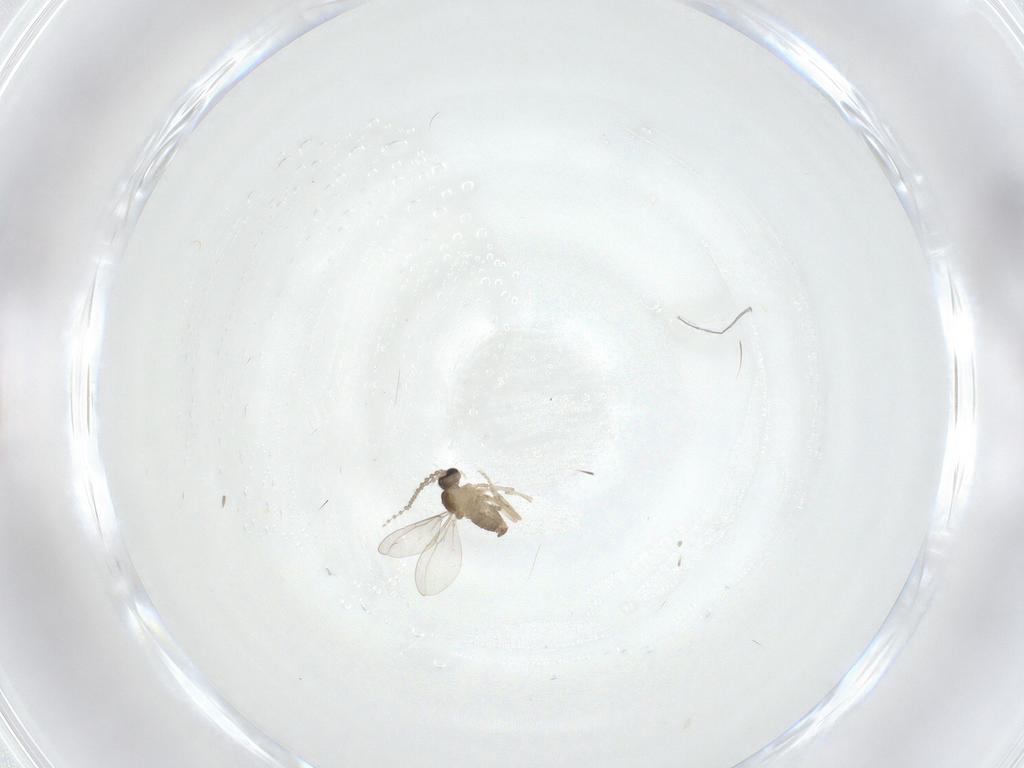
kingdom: Animalia
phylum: Arthropoda
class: Insecta
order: Diptera
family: Cecidomyiidae
